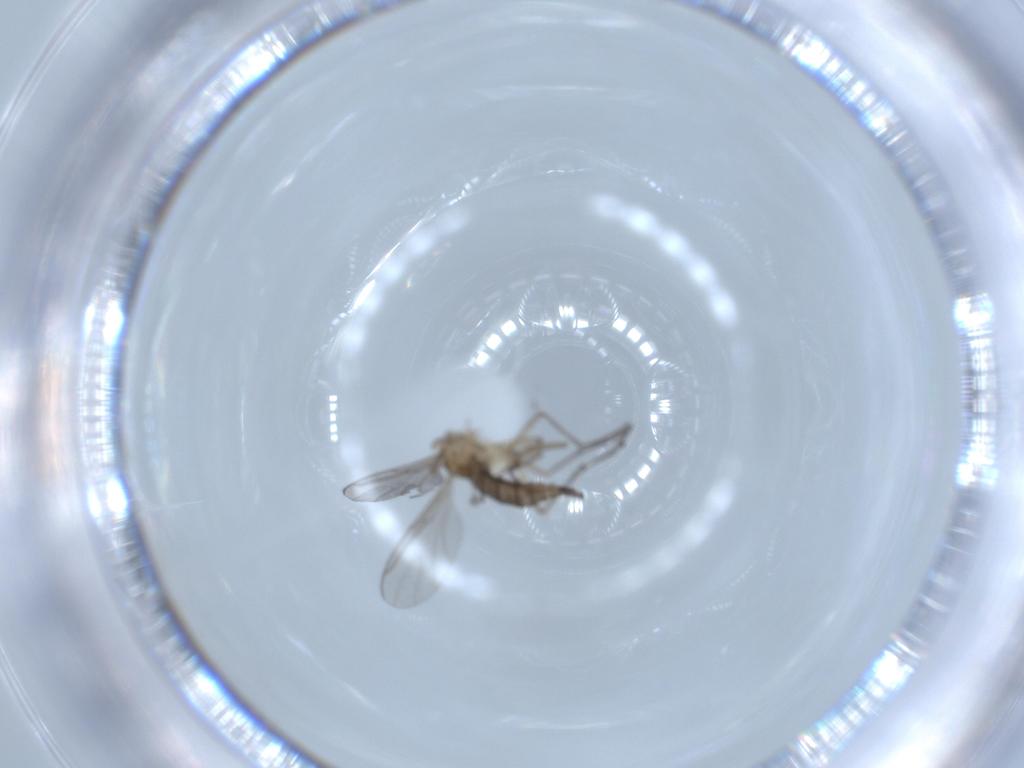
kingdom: Animalia
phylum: Arthropoda
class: Insecta
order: Diptera
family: Sciaridae
